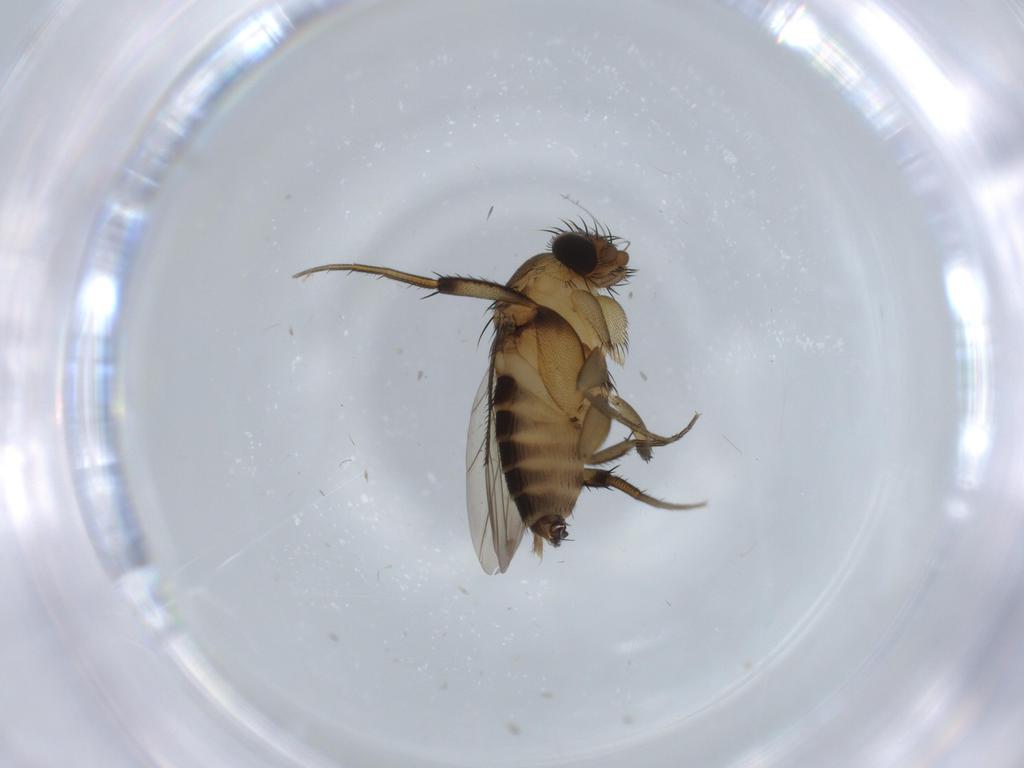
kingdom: Animalia
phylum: Arthropoda
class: Insecta
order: Diptera
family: Phoridae
